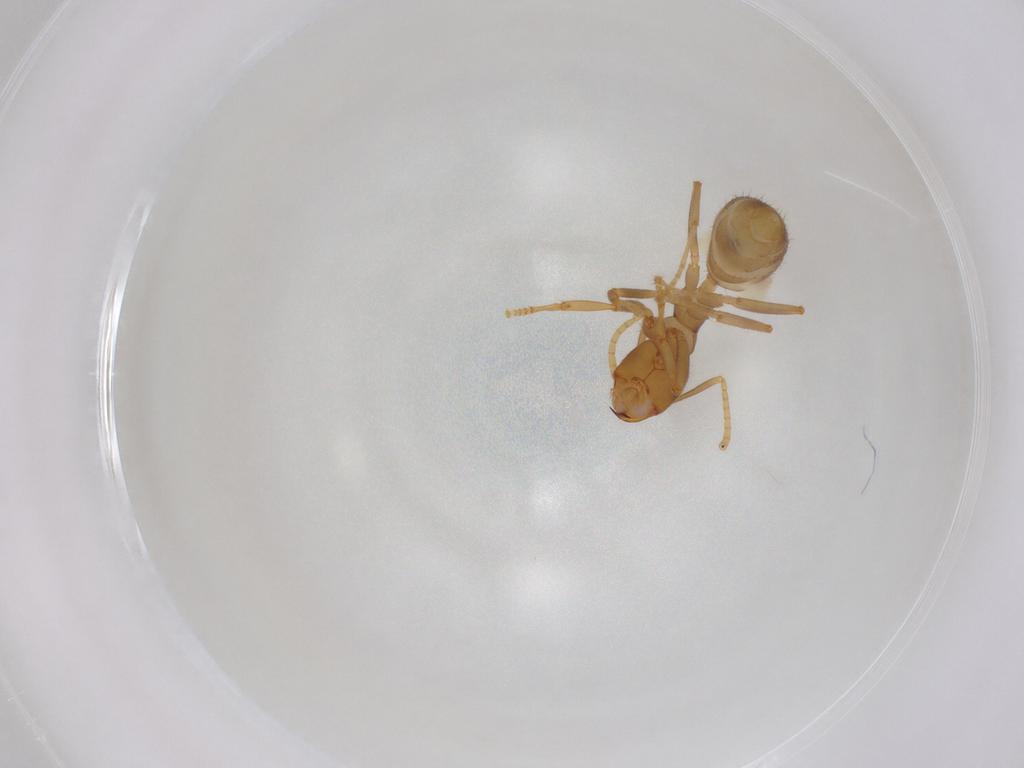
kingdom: Animalia
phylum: Arthropoda
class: Insecta
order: Hymenoptera
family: Formicidae
